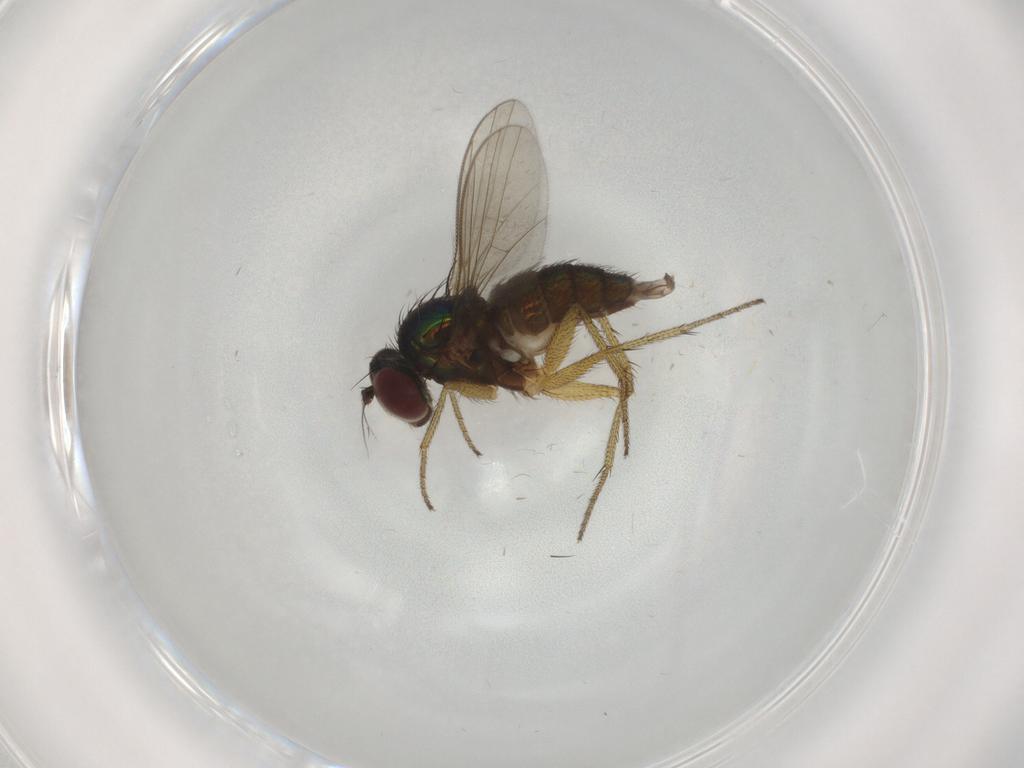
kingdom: Animalia
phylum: Arthropoda
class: Insecta
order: Diptera
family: Dolichopodidae
